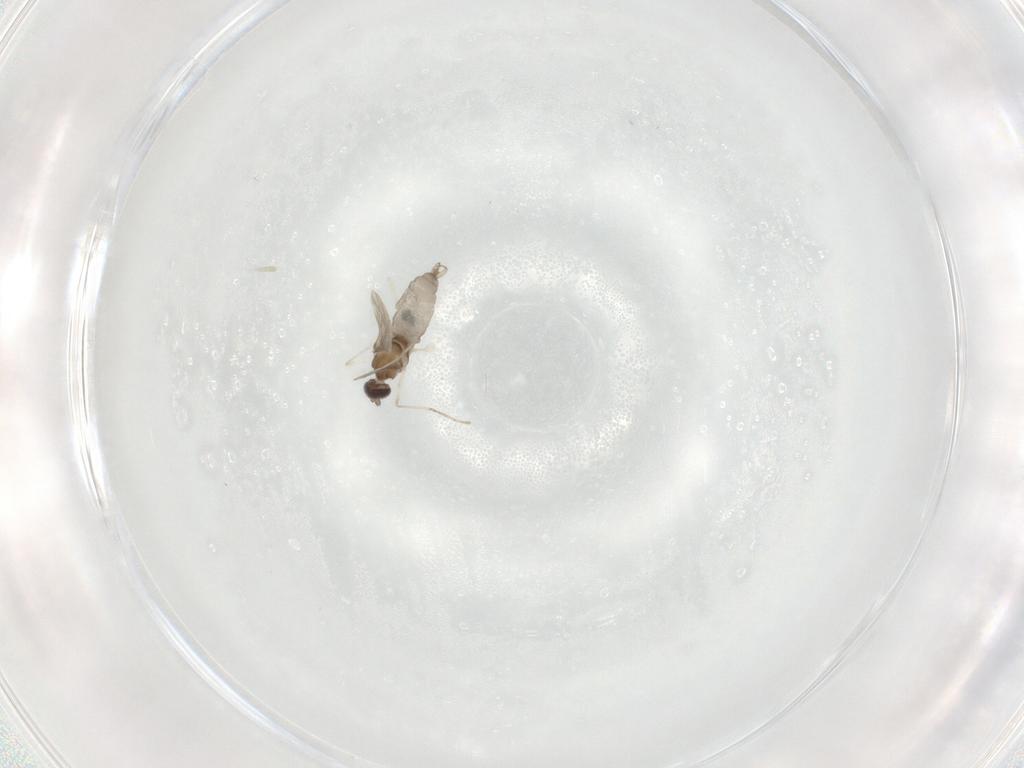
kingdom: Animalia
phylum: Arthropoda
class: Insecta
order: Diptera
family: Cecidomyiidae
